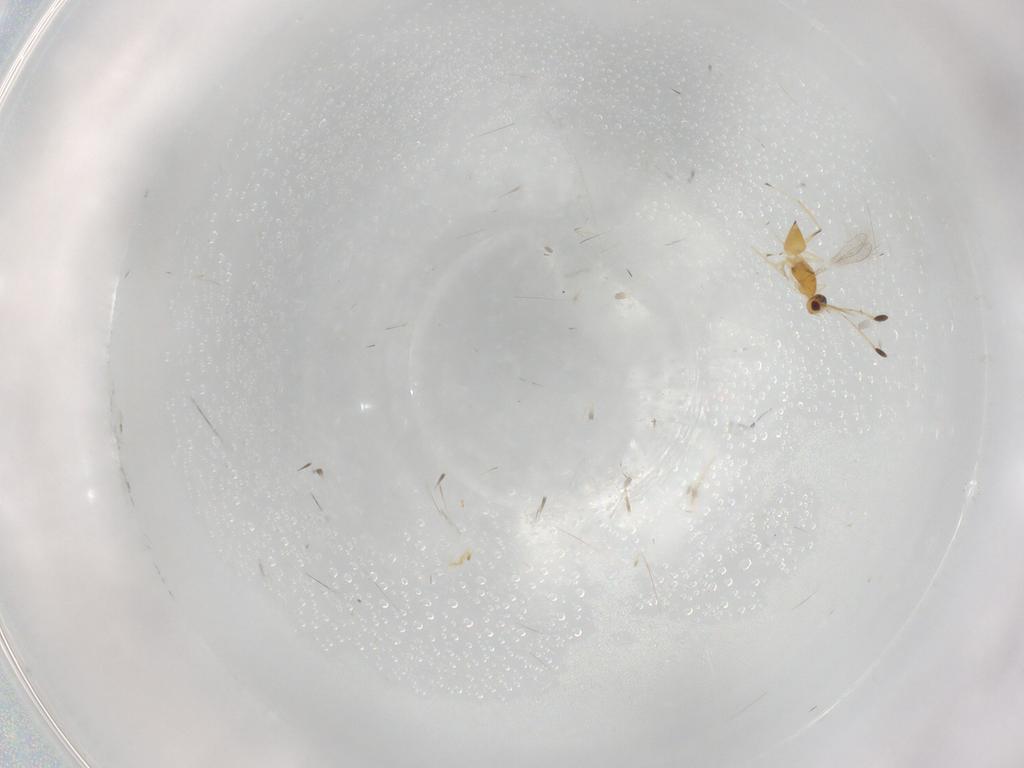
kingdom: Animalia
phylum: Arthropoda
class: Insecta
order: Hymenoptera
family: Mymaridae
